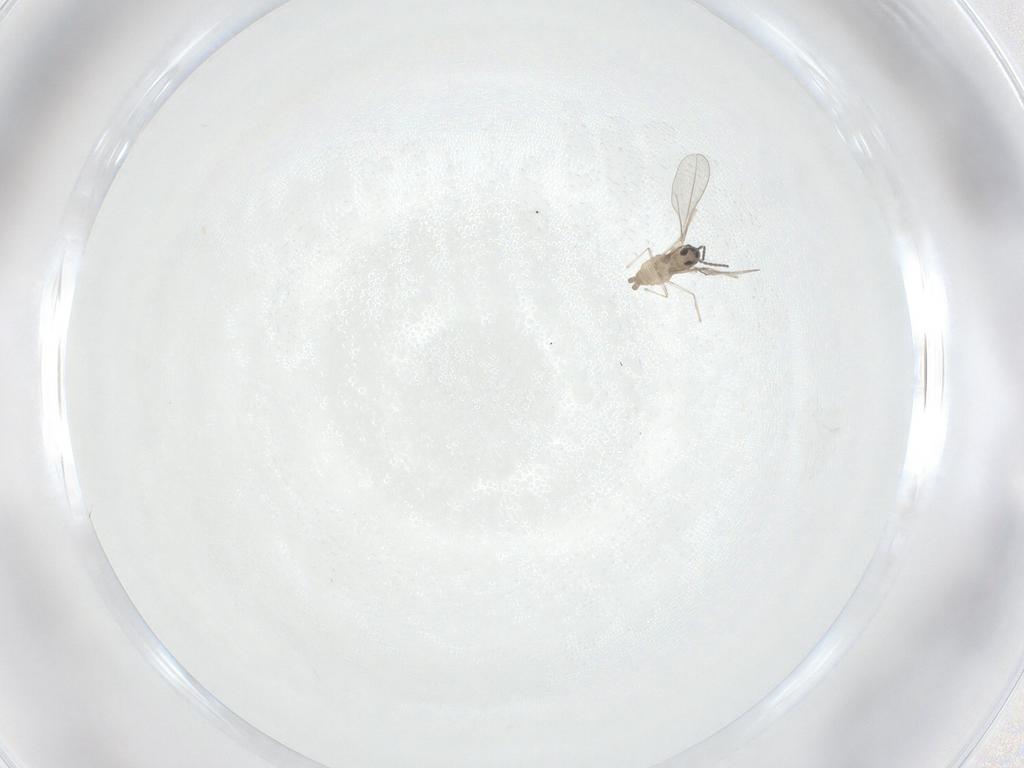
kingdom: Animalia
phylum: Arthropoda
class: Insecta
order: Diptera
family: Cecidomyiidae
